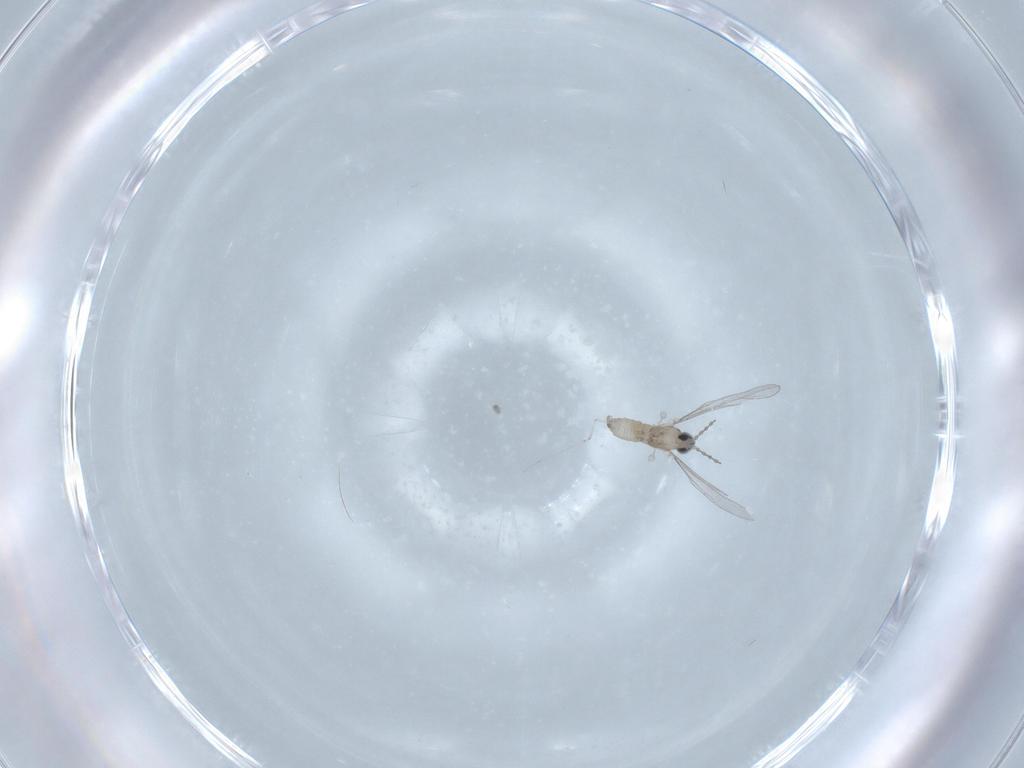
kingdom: Animalia
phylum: Arthropoda
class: Insecta
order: Diptera
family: Cecidomyiidae
